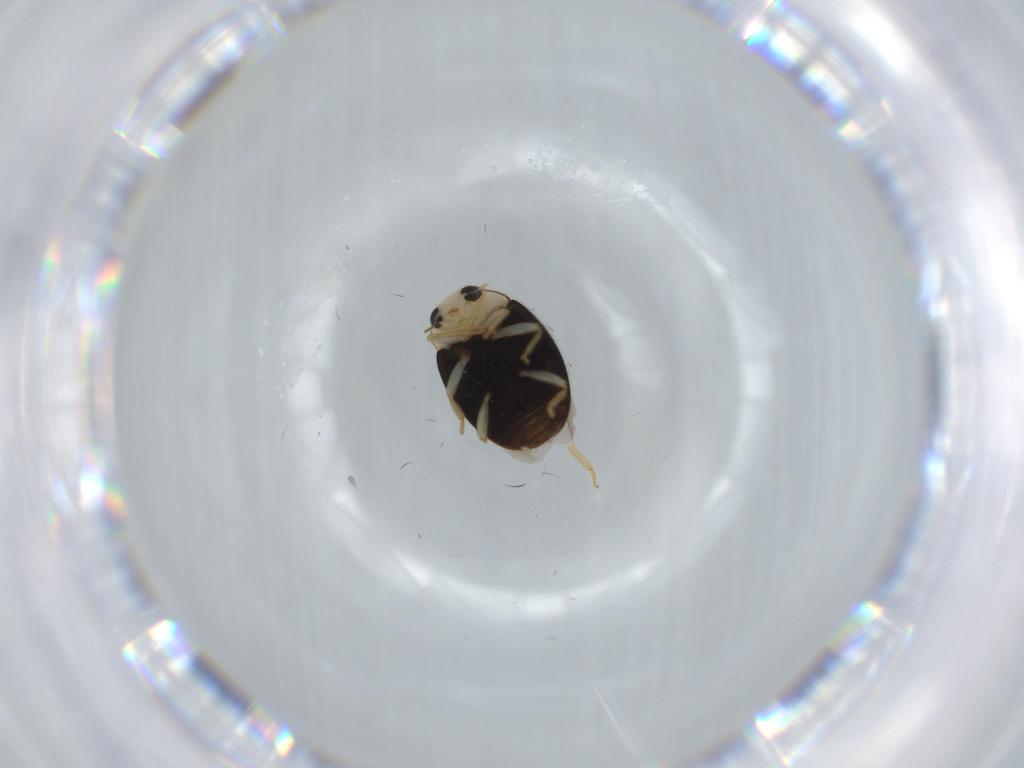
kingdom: Animalia
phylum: Arthropoda
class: Insecta
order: Coleoptera
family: Coccinellidae
